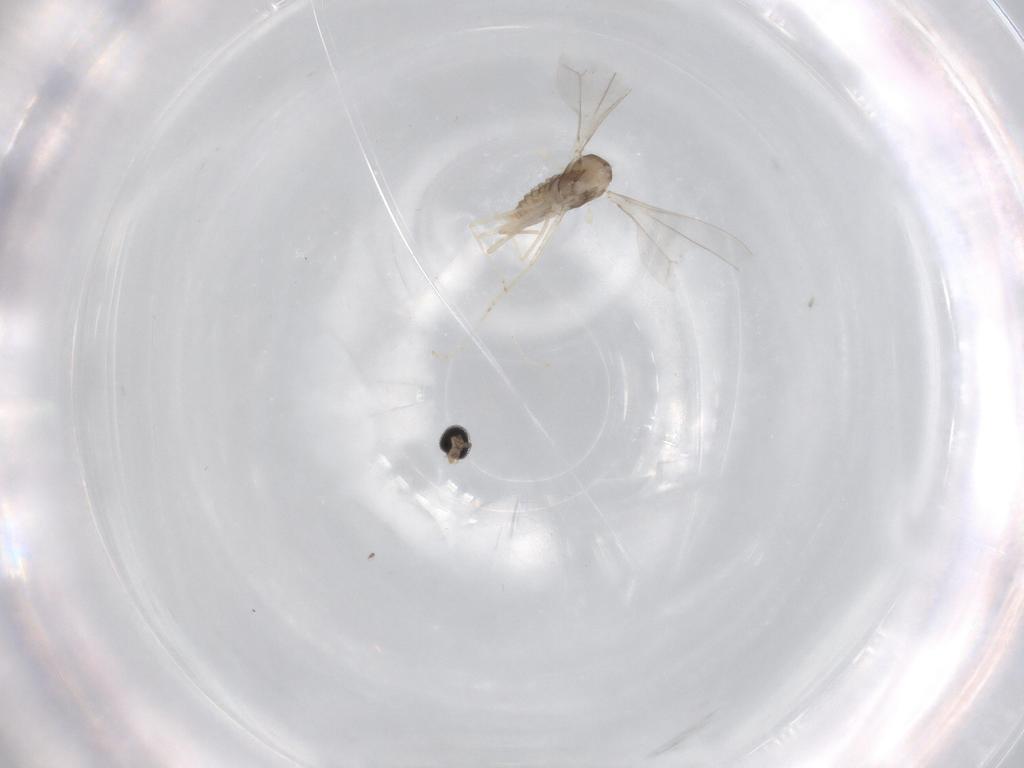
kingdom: Animalia
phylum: Arthropoda
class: Insecta
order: Diptera
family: Cecidomyiidae
